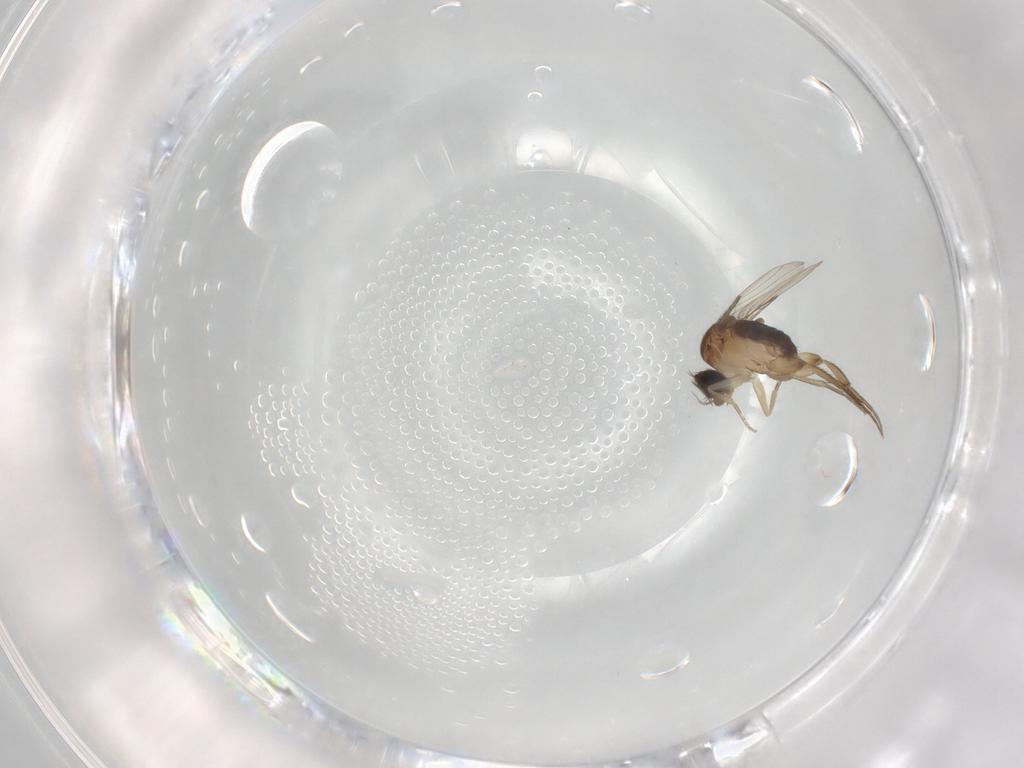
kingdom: Animalia
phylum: Arthropoda
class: Insecta
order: Diptera
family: Phoridae
